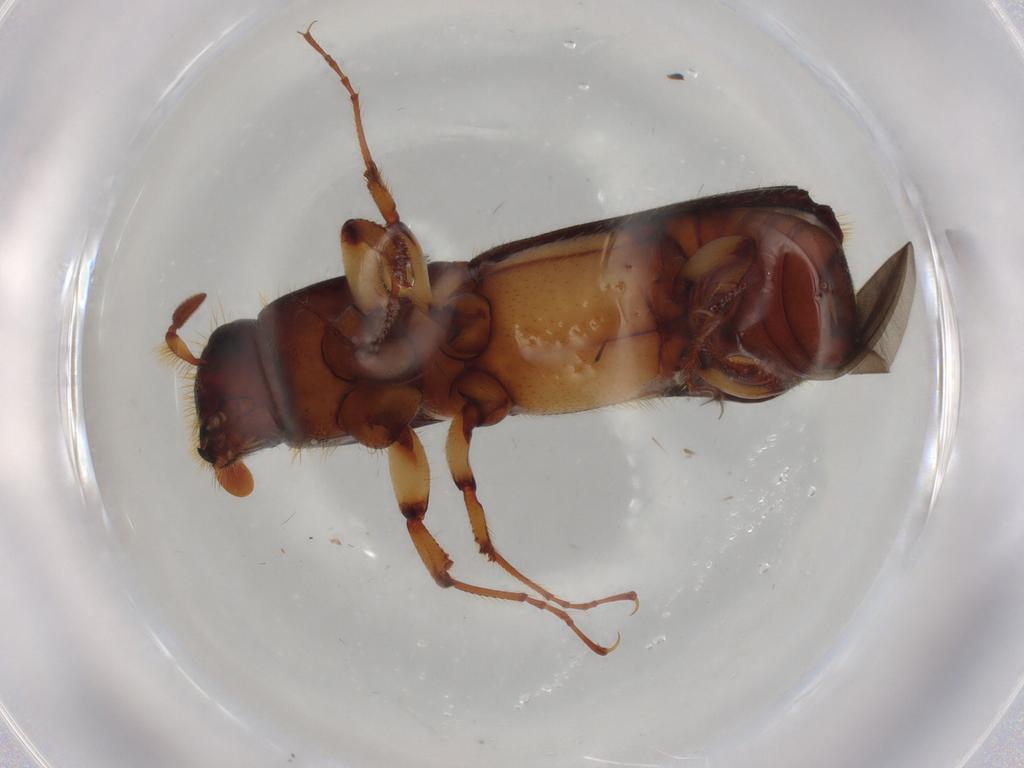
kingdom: Animalia
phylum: Arthropoda
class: Insecta
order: Coleoptera
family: Curculionidae
